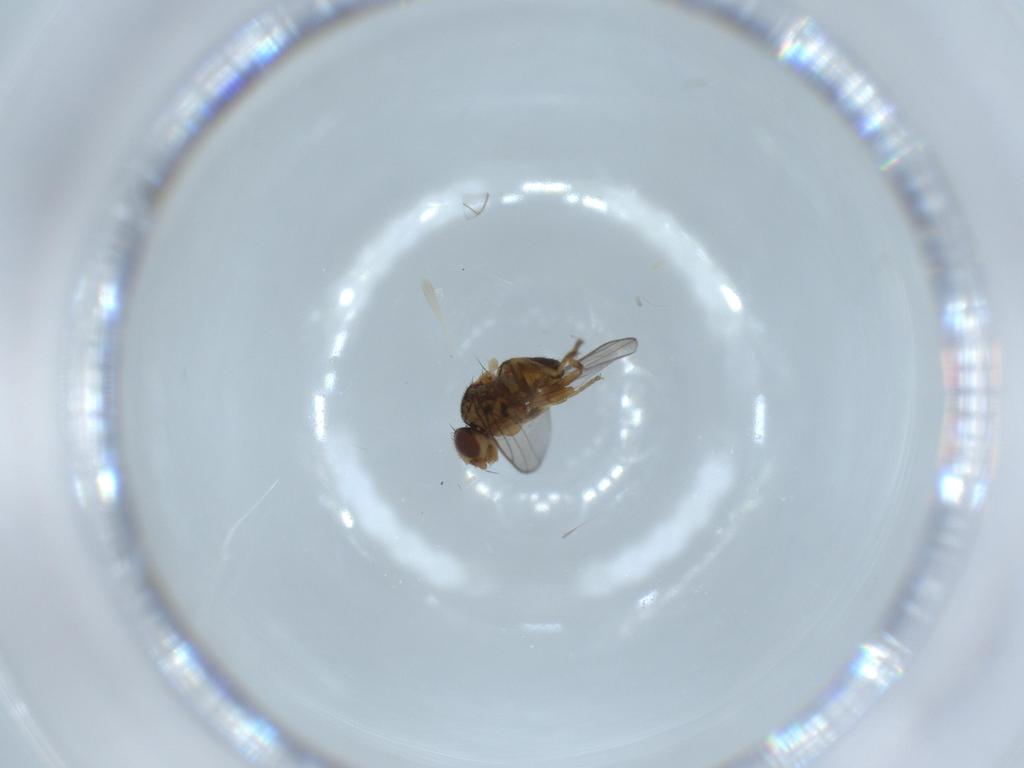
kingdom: Animalia
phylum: Arthropoda
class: Insecta
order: Diptera
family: Chloropidae
